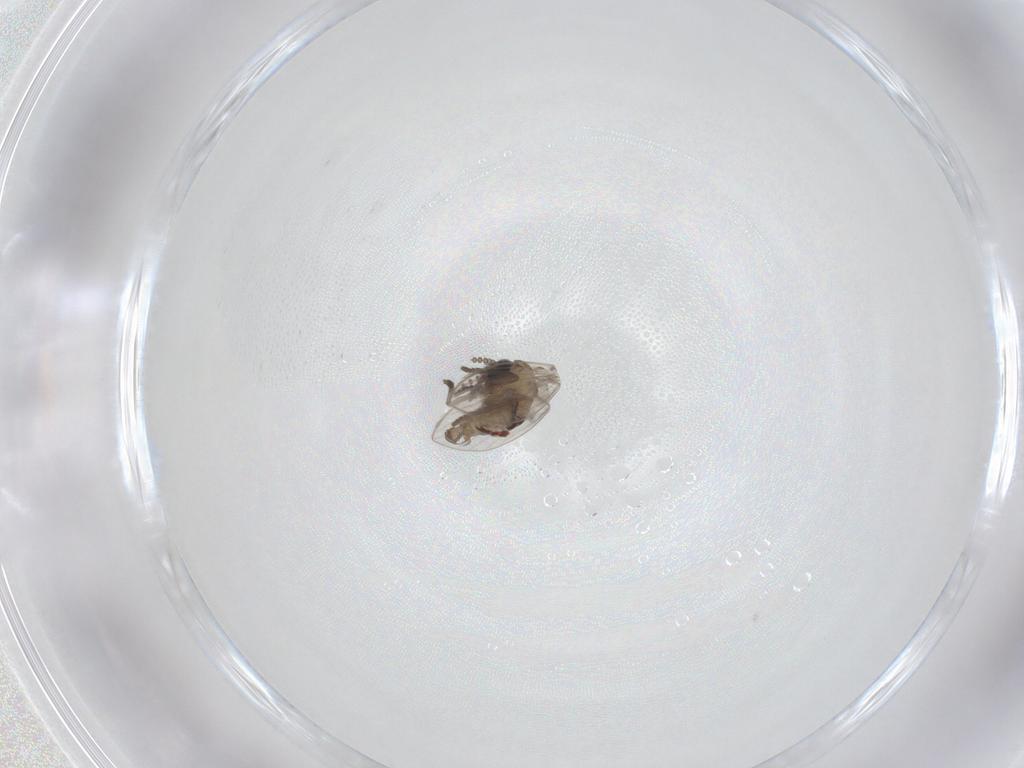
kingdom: Animalia
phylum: Arthropoda
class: Insecta
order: Diptera
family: Psychodidae
